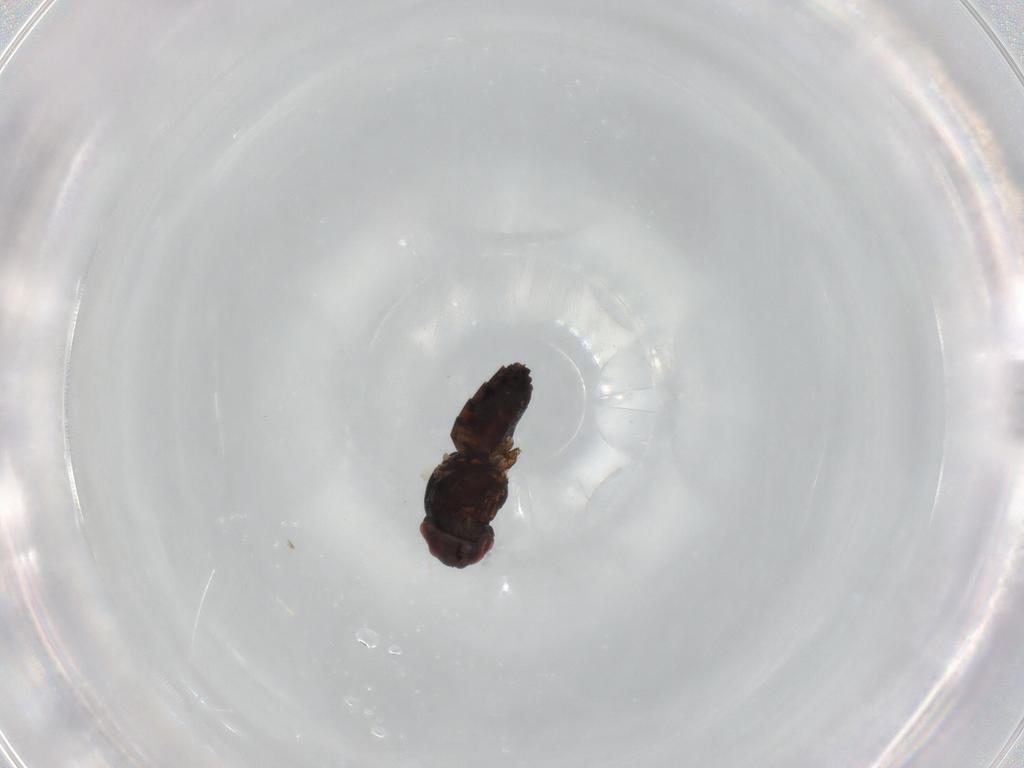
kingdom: Animalia
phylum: Arthropoda
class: Insecta
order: Diptera
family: Chloropidae
